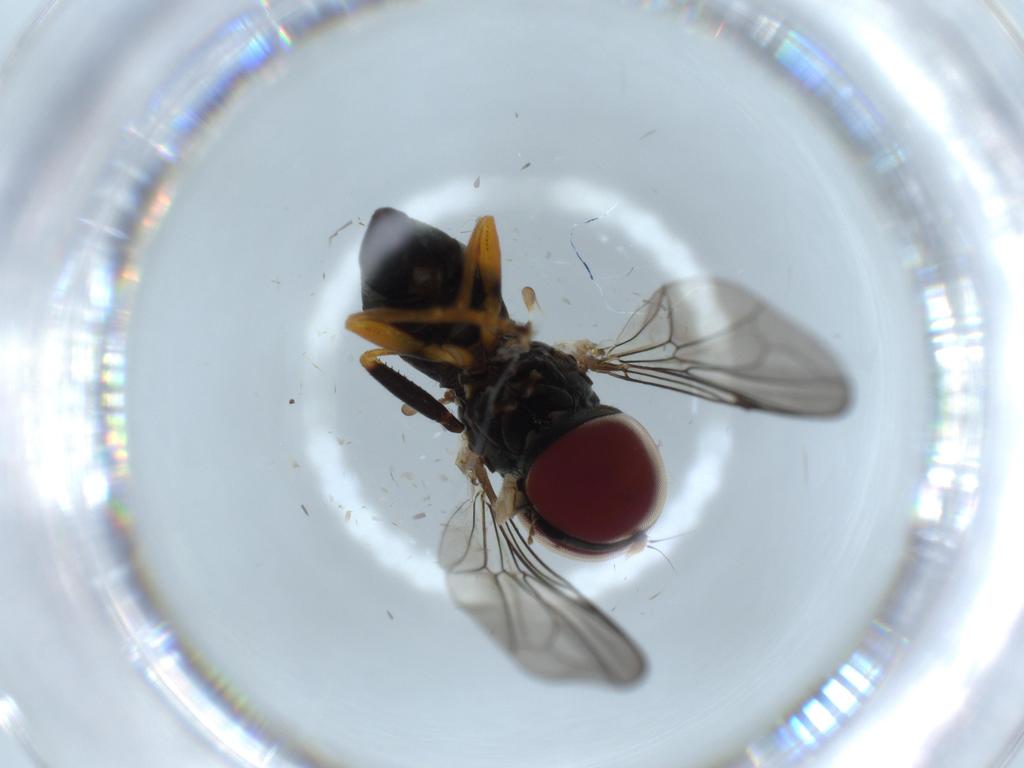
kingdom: Animalia
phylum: Arthropoda
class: Insecta
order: Diptera
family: Pipunculidae
